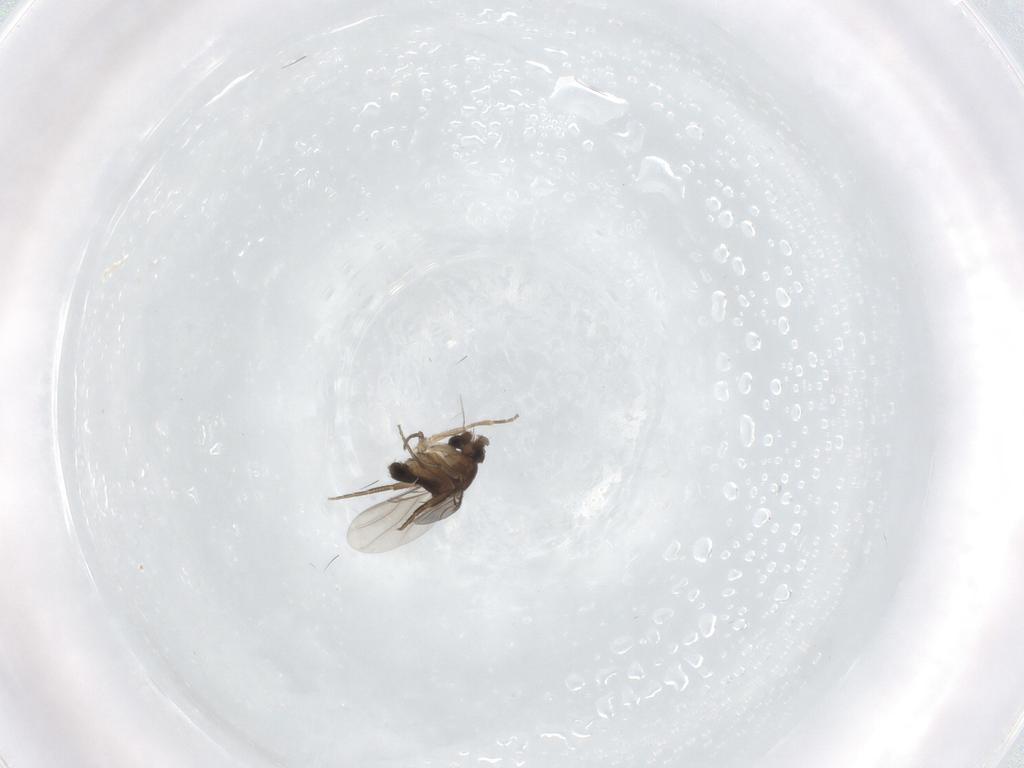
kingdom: Animalia
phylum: Arthropoda
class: Insecta
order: Diptera
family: Phoridae
